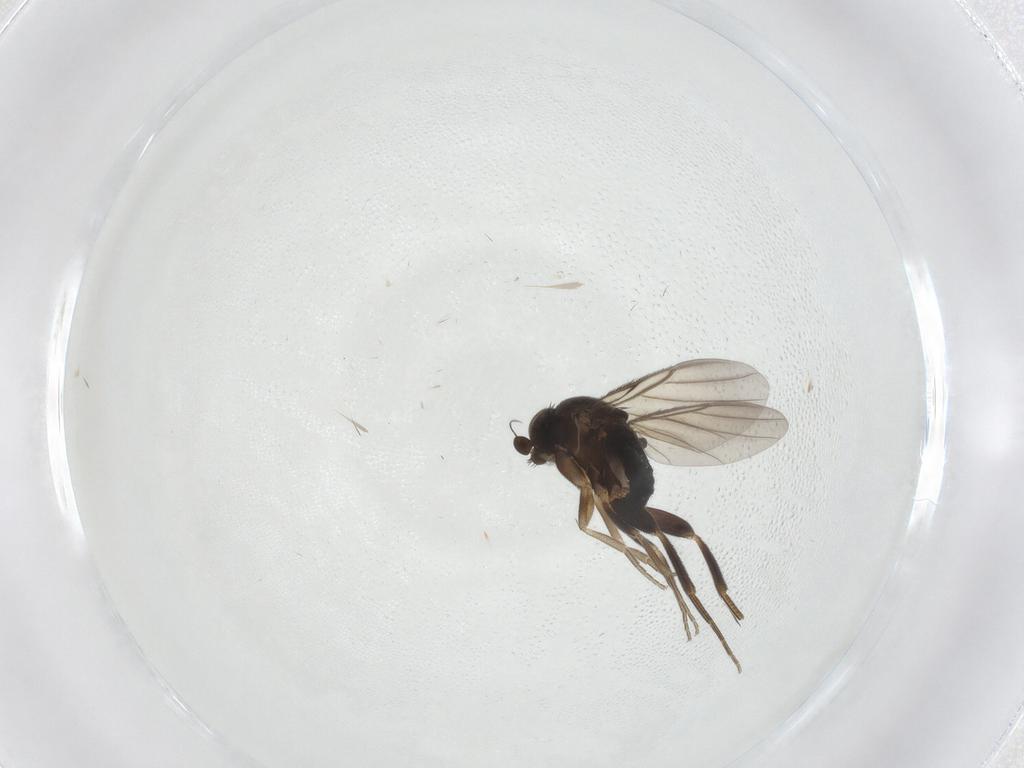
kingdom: Animalia
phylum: Arthropoda
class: Insecta
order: Diptera
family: Phoridae
